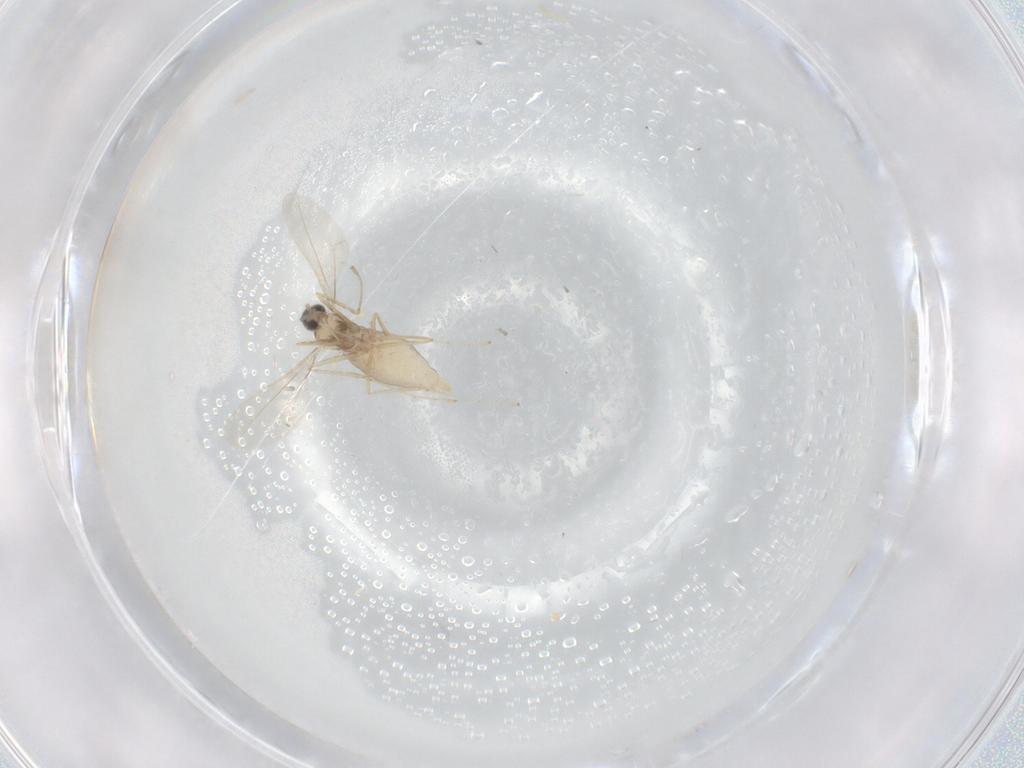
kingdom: Animalia
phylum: Arthropoda
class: Insecta
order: Diptera
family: Cecidomyiidae
